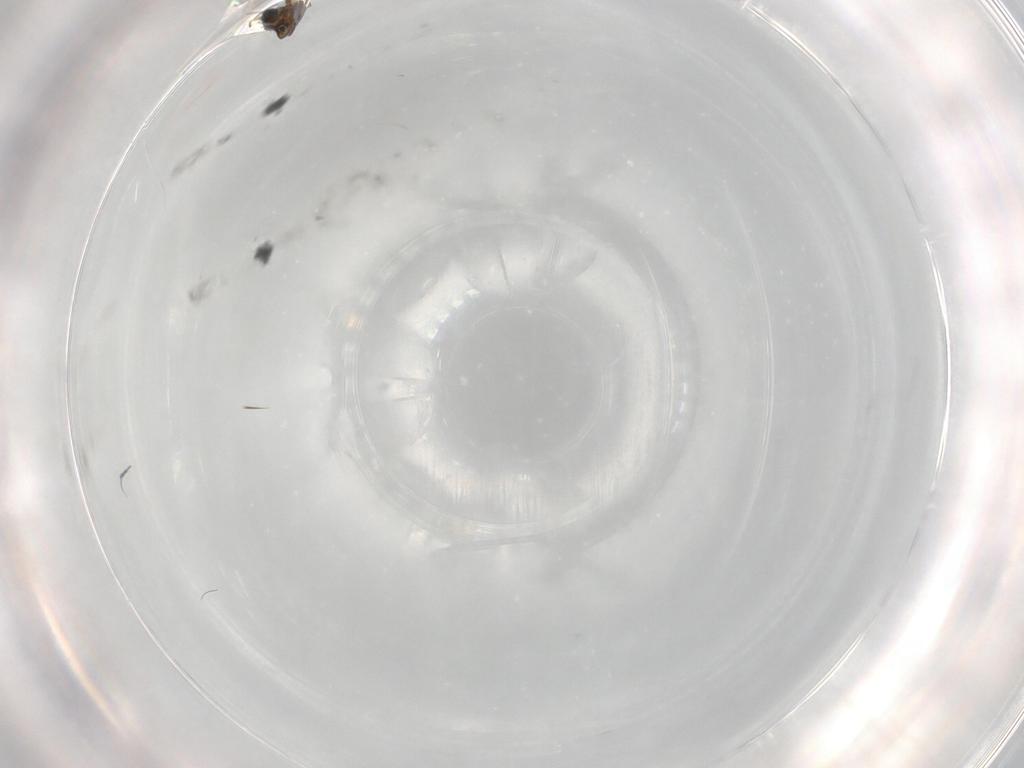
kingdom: Animalia
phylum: Arthropoda
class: Insecta
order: Thysanoptera
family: Thripidae
